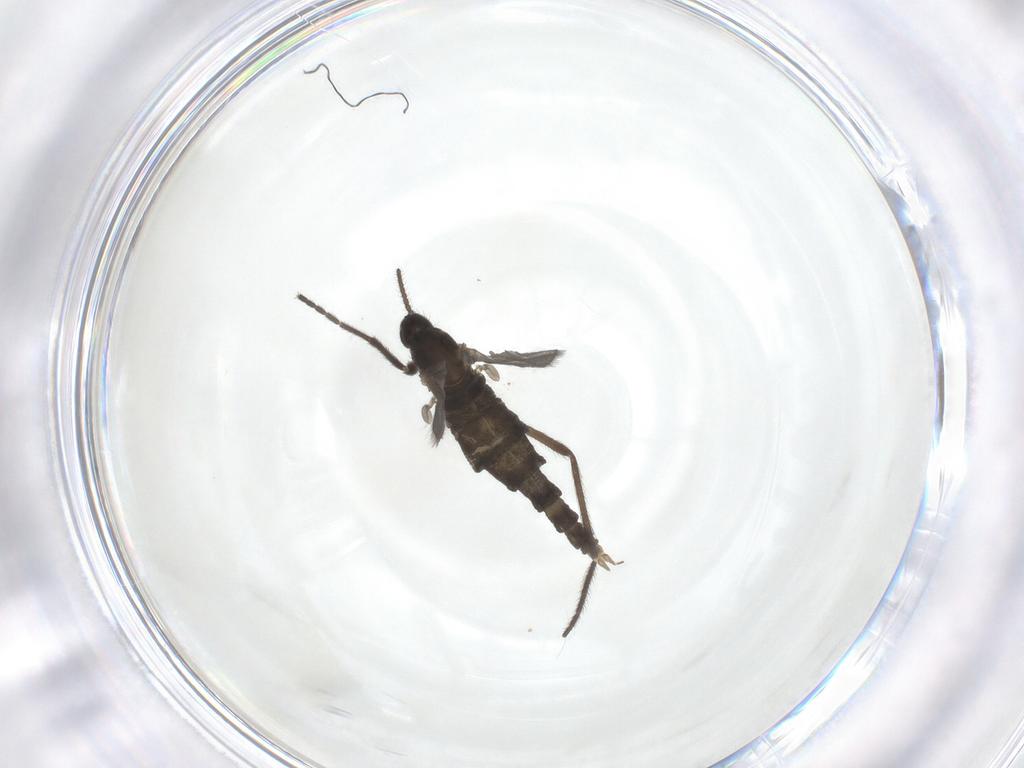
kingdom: Animalia
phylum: Arthropoda
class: Insecta
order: Diptera
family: Cecidomyiidae
